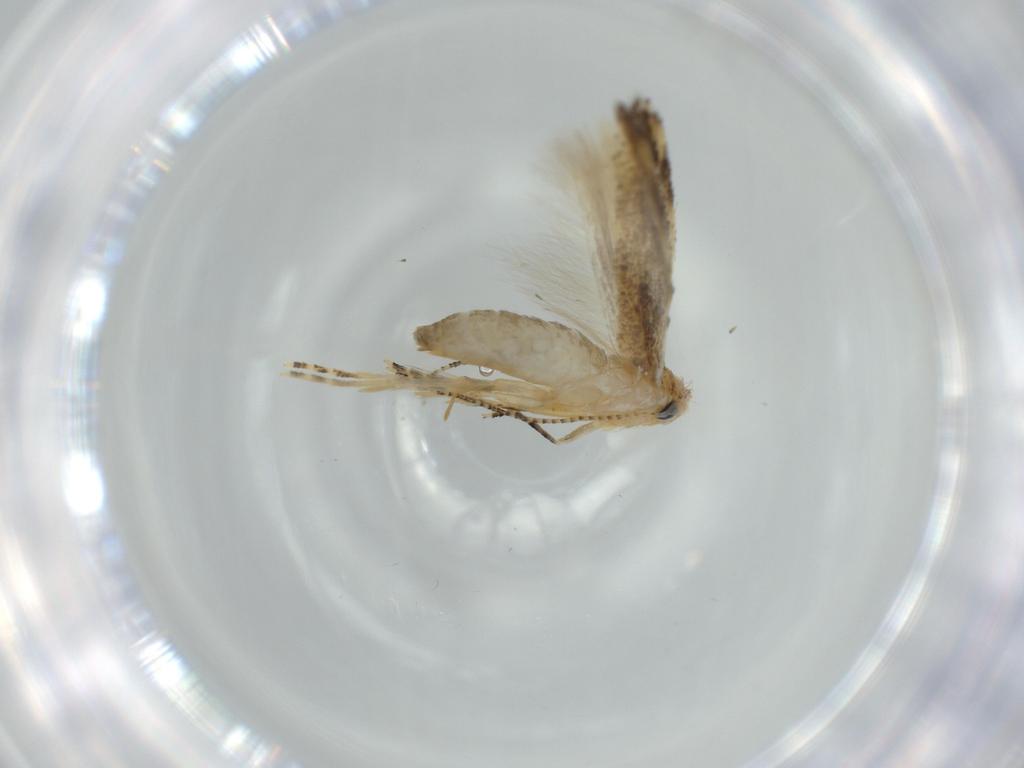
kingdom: Animalia
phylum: Arthropoda
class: Insecta
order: Lepidoptera
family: Bucculatricidae
